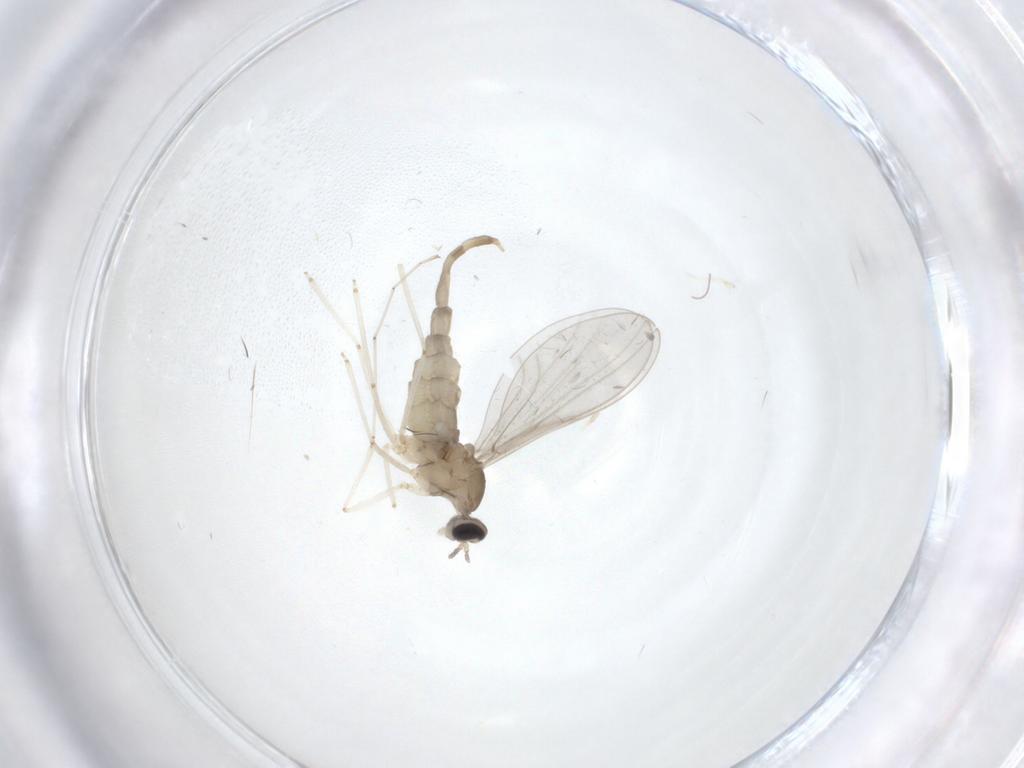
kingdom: Animalia
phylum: Arthropoda
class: Insecta
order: Diptera
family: Cecidomyiidae
